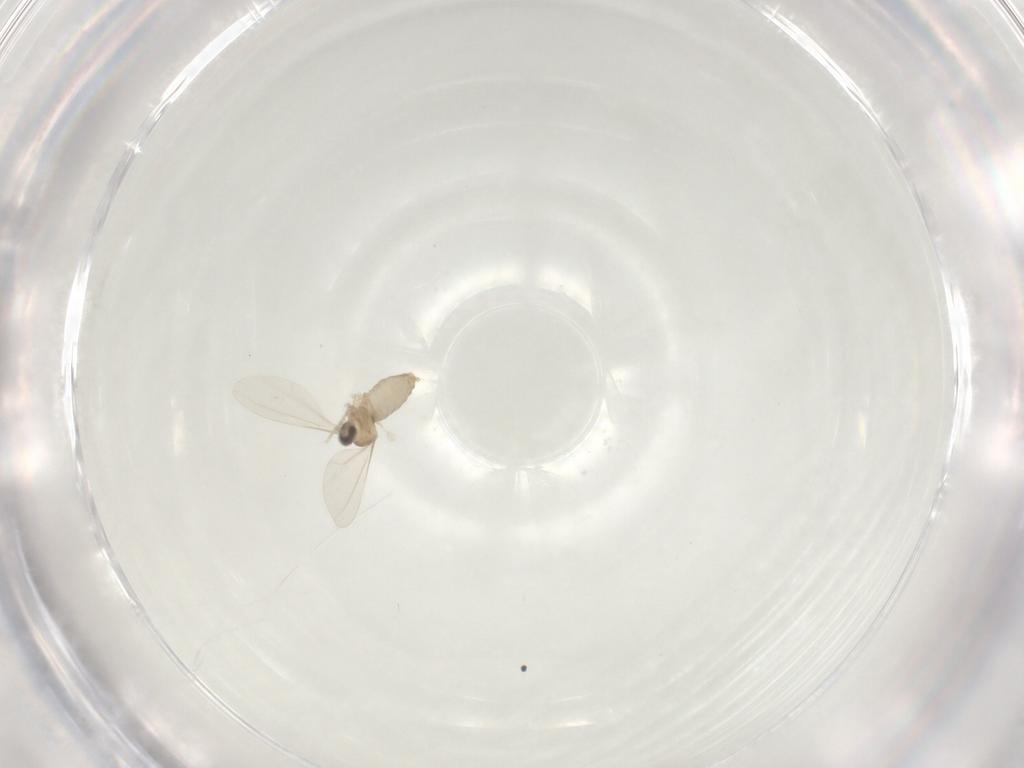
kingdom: Animalia
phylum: Arthropoda
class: Insecta
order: Diptera
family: Cecidomyiidae
